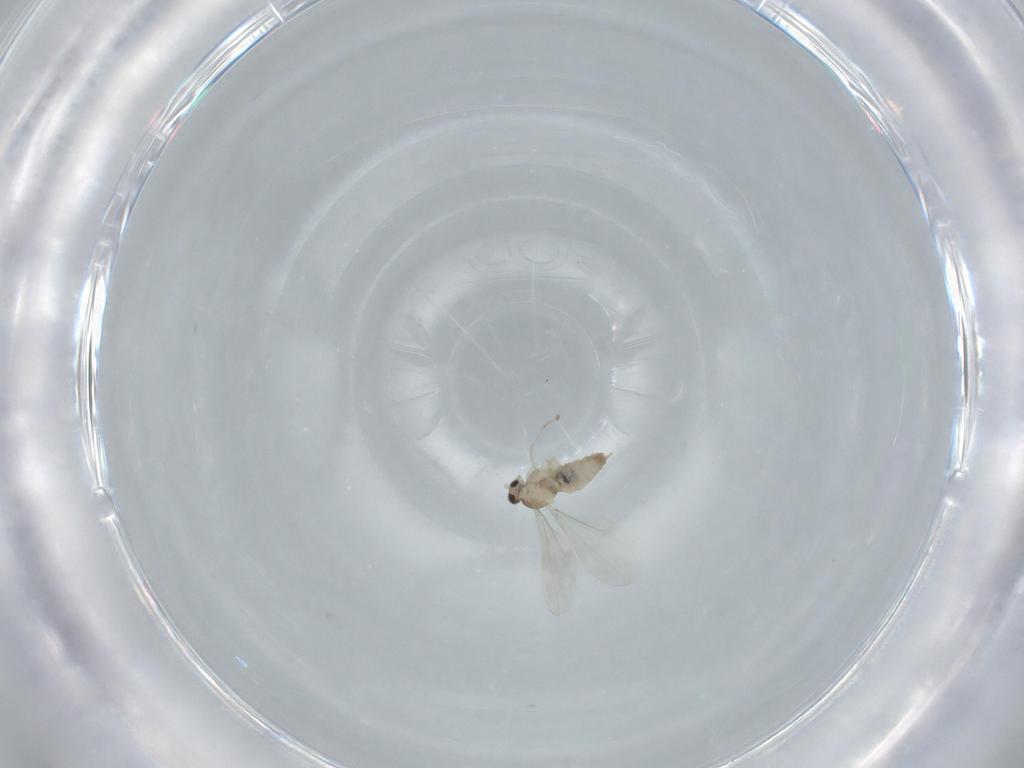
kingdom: Animalia
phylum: Arthropoda
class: Insecta
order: Diptera
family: Cecidomyiidae
